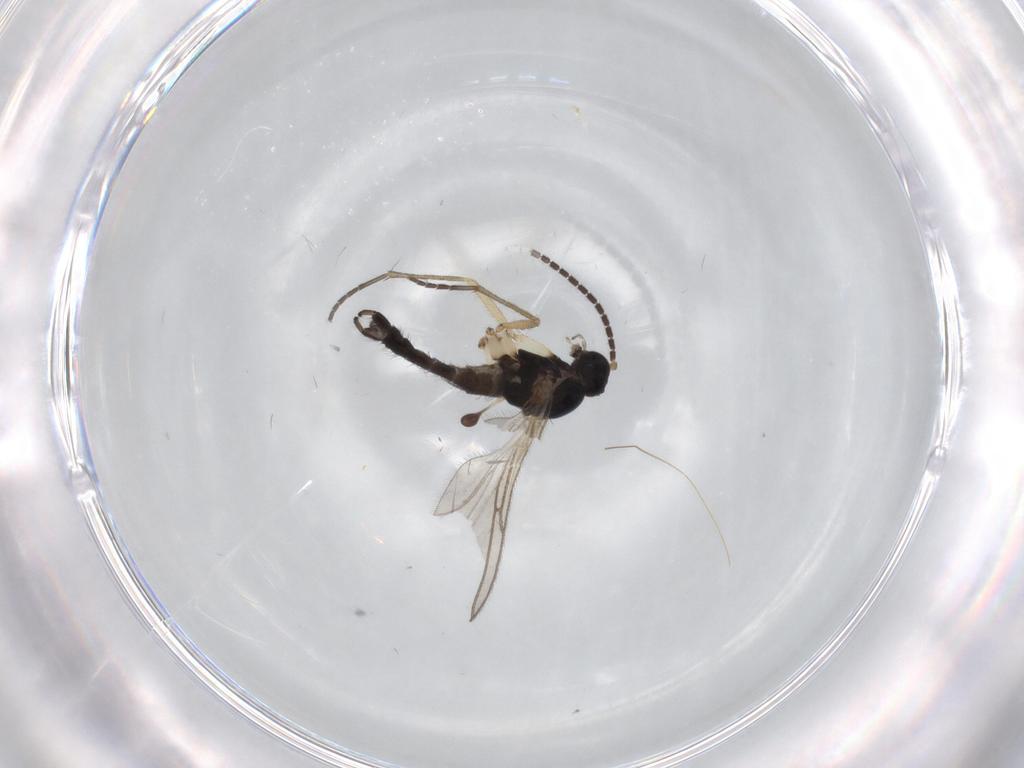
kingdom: Animalia
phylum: Arthropoda
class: Insecta
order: Diptera
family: Sciaridae
